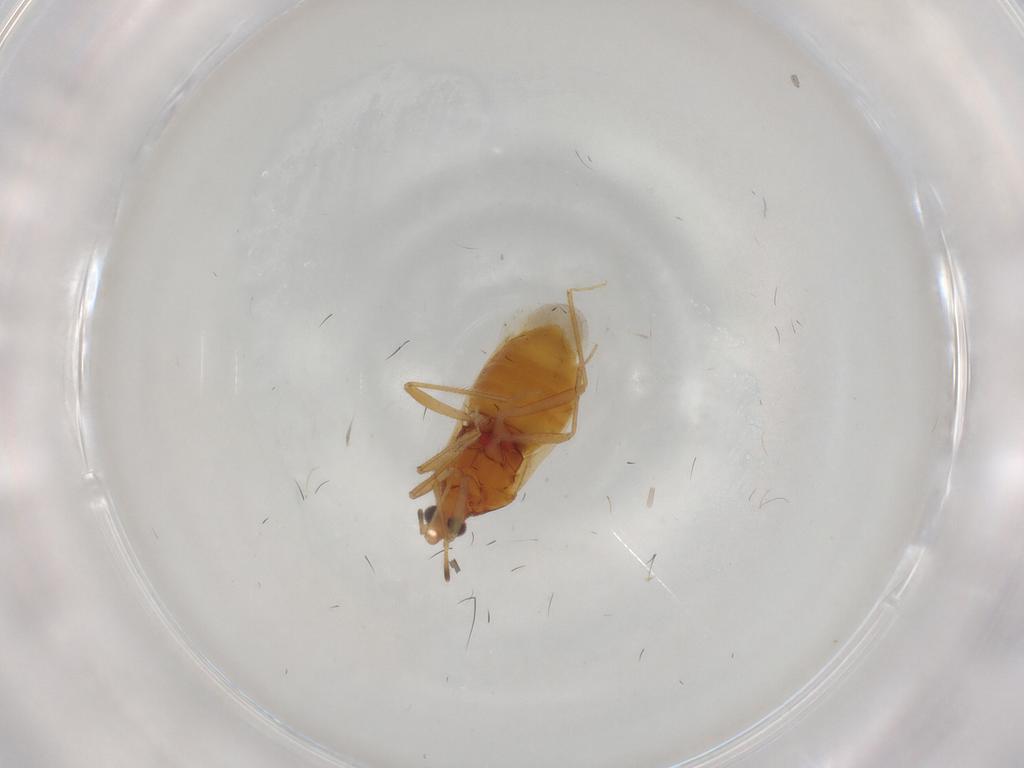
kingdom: Animalia
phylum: Arthropoda
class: Insecta
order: Hemiptera
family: Anthocoridae
